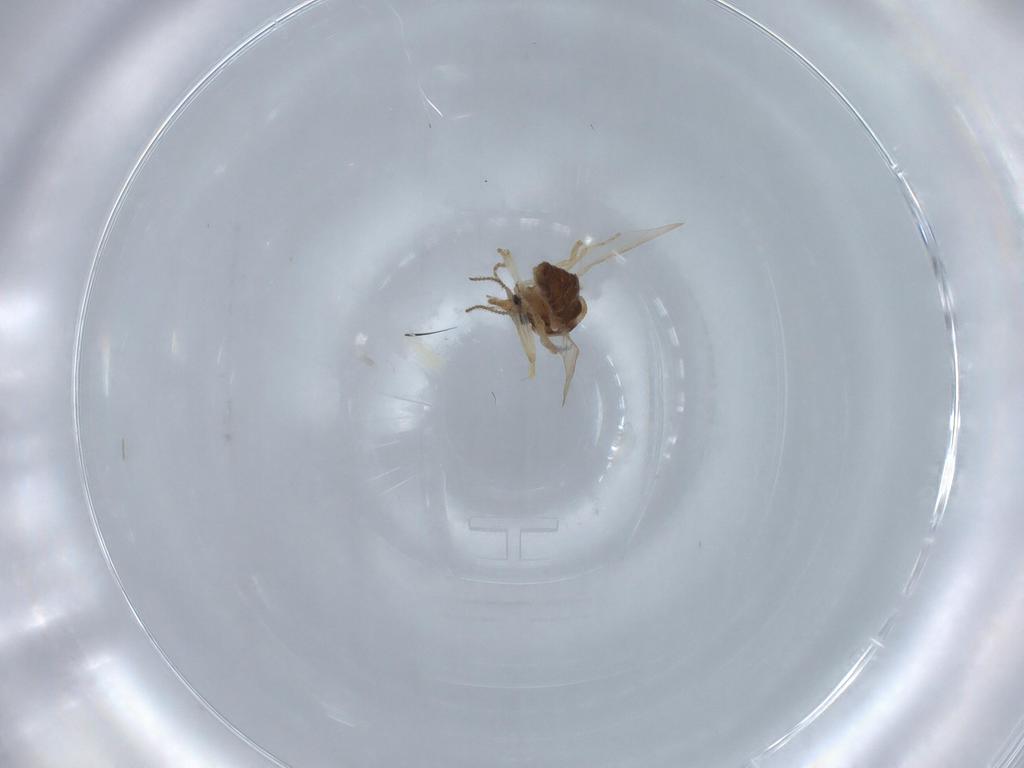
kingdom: Animalia
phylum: Arthropoda
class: Insecta
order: Diptera
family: Ceratopogonidae
